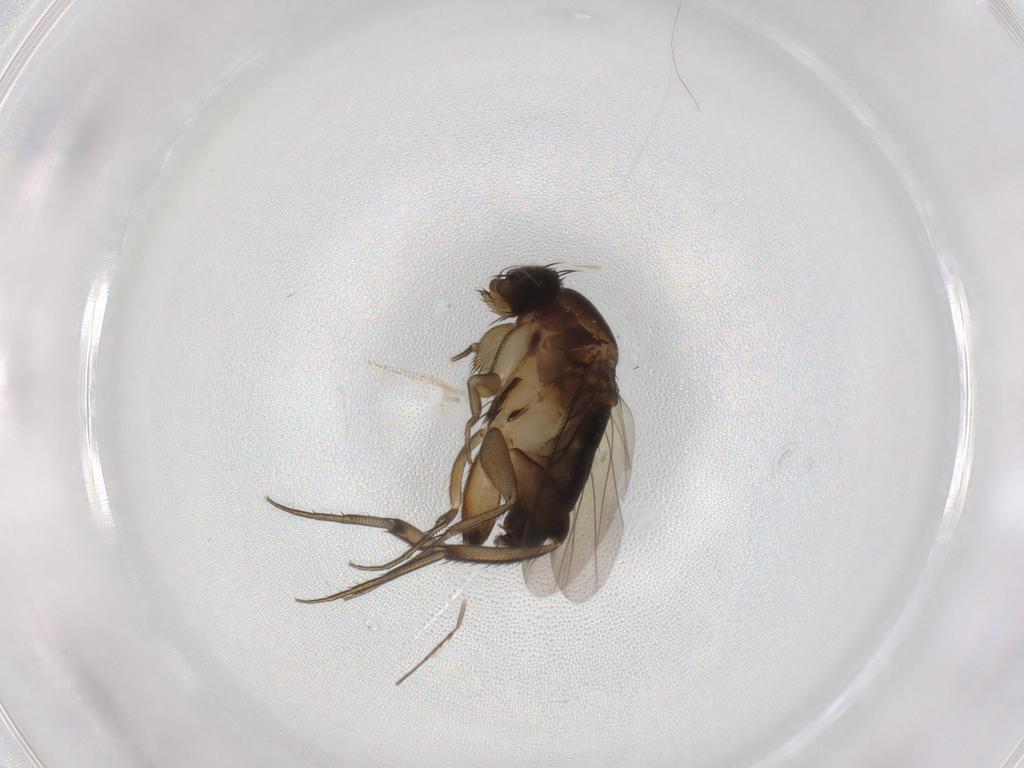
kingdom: Animalia
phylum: Arthropoda
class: Insecta
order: Diptera
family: Phoridae
